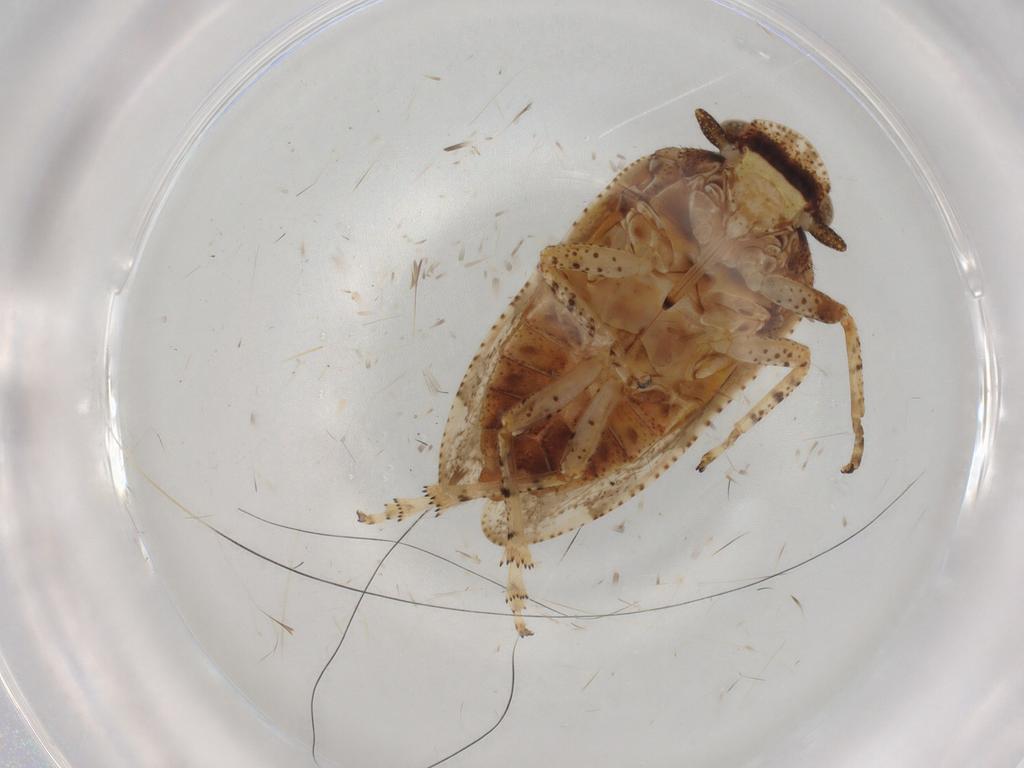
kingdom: Animalia
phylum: Arthropoda
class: Insecta
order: Hemiptera
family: Tettigometridae
